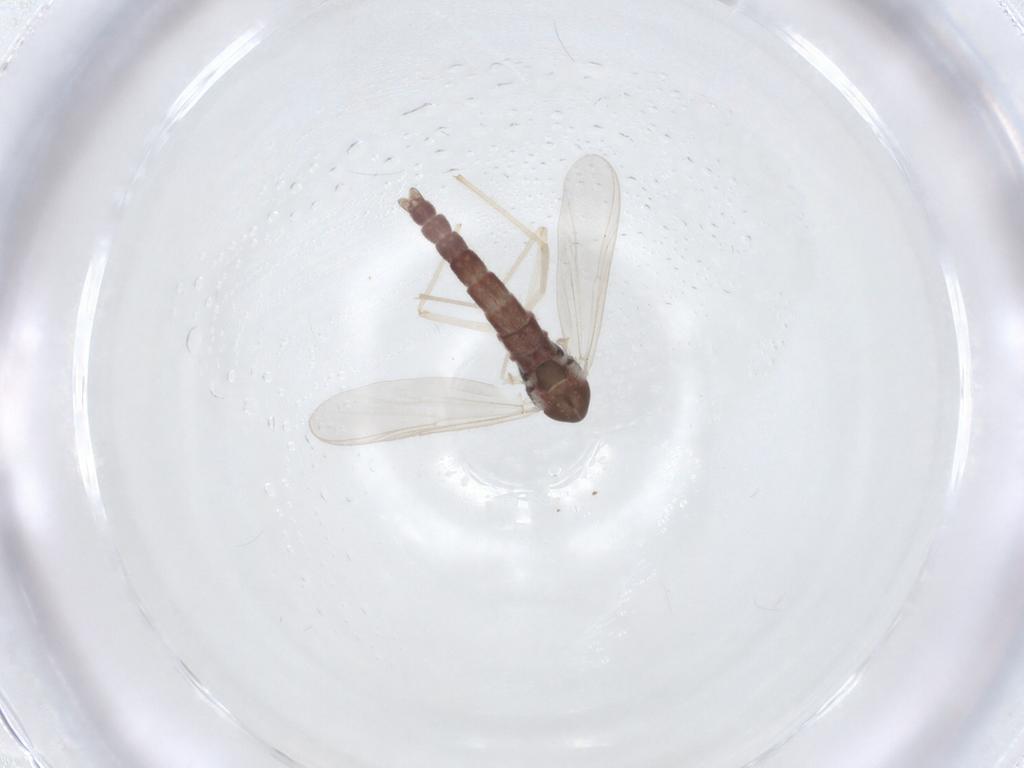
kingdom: Animalia
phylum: Arthropoda
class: Insecta
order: Diptera
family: Chironomidae
